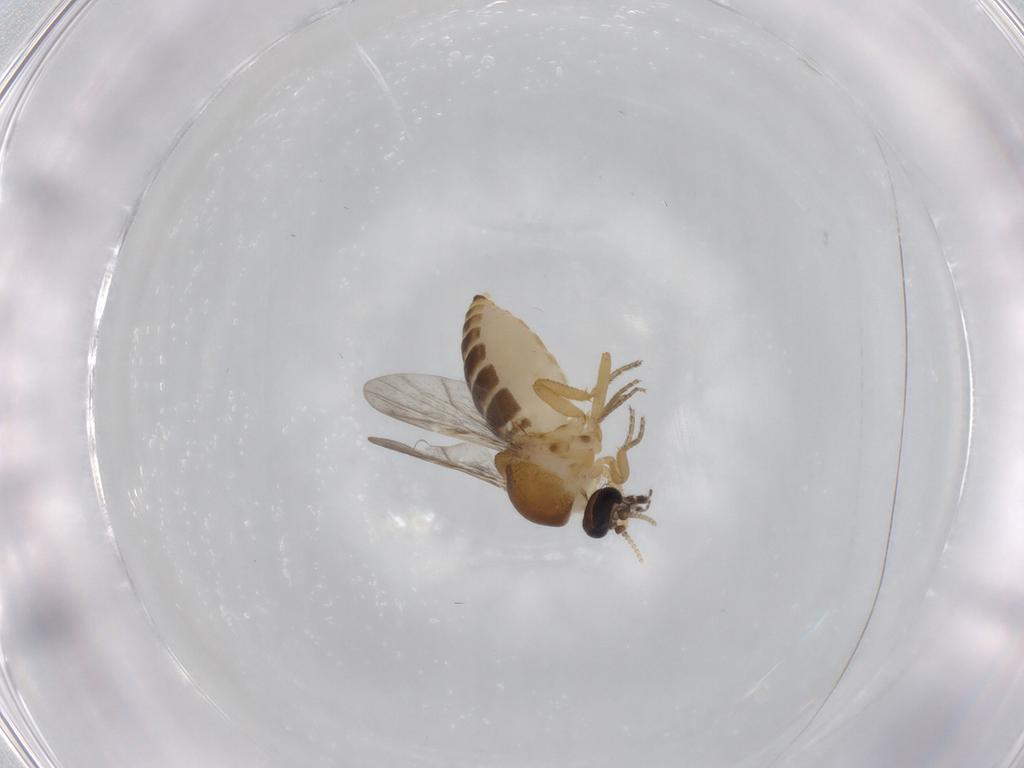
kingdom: Animalia
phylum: Arthropoda
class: Insecta
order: Diptera
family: Ceratopogonidae
